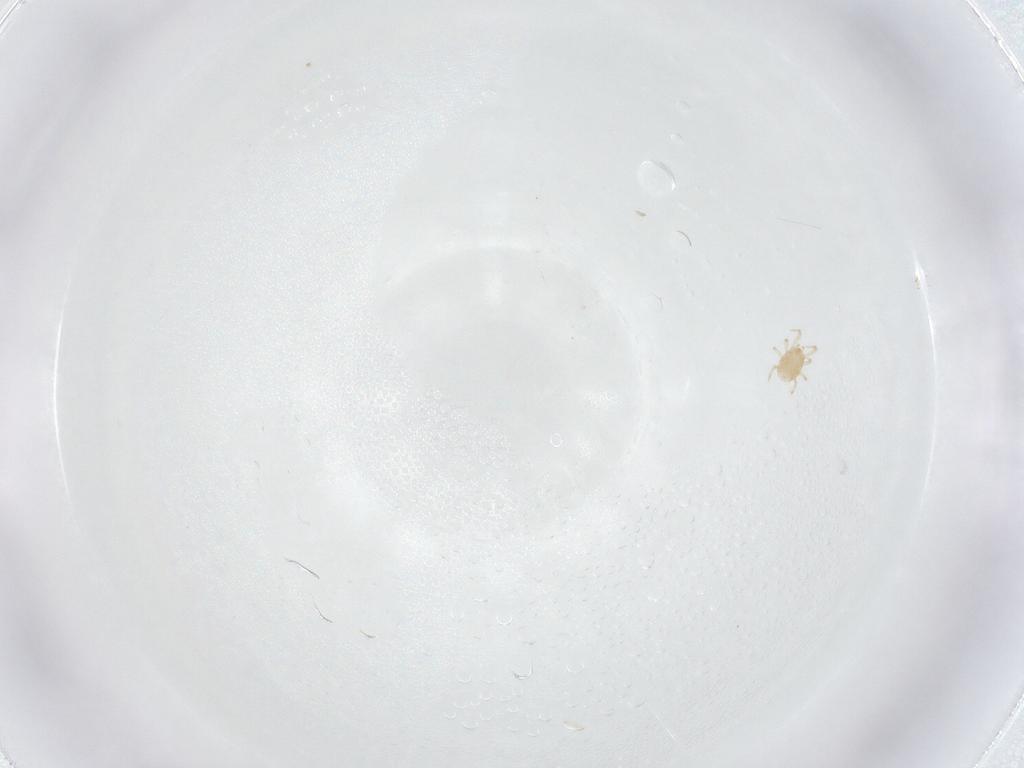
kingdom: Animalia
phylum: Arthropoda
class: Arachnida
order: Mesostigmata
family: Phytoseiidae
